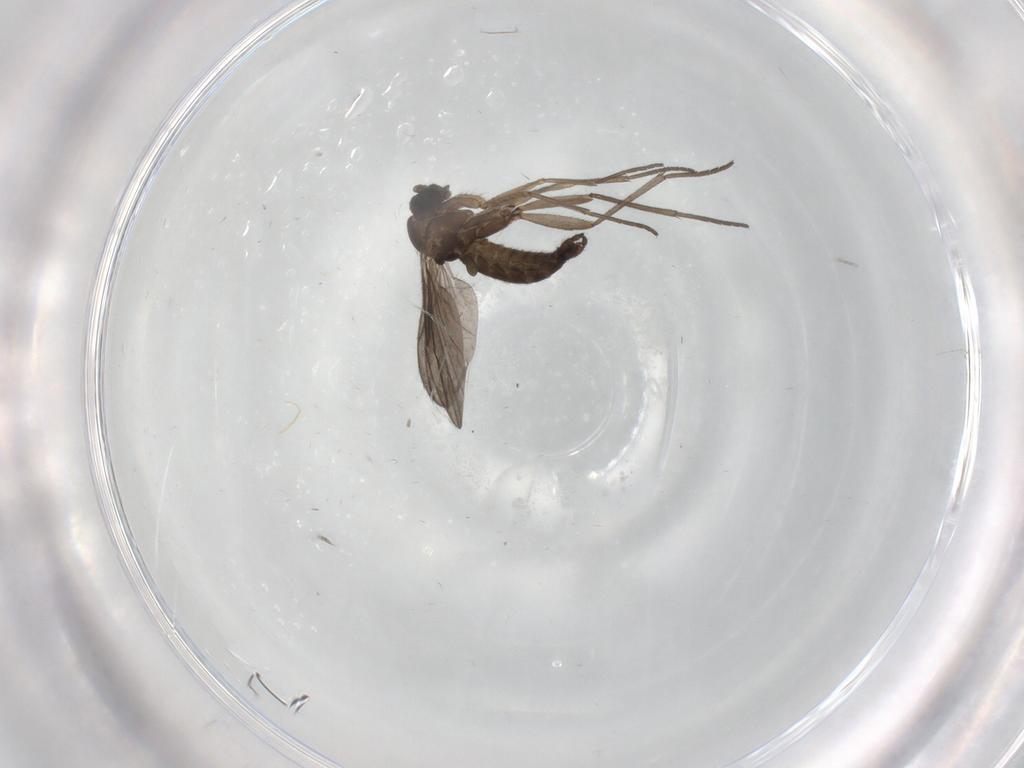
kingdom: Animalia
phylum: Arthropoda
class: Insecta
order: Diptera
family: Sciaridae
